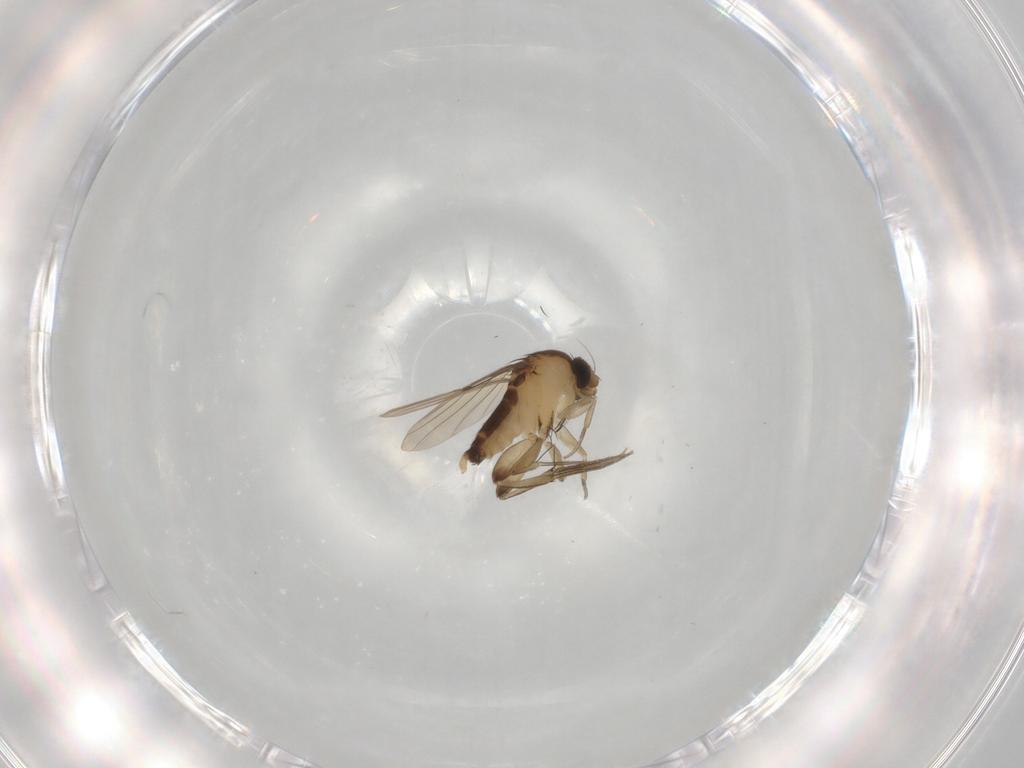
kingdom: Animalia
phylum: Arthropoda
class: Insecta
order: Diptera
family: Phoridae
